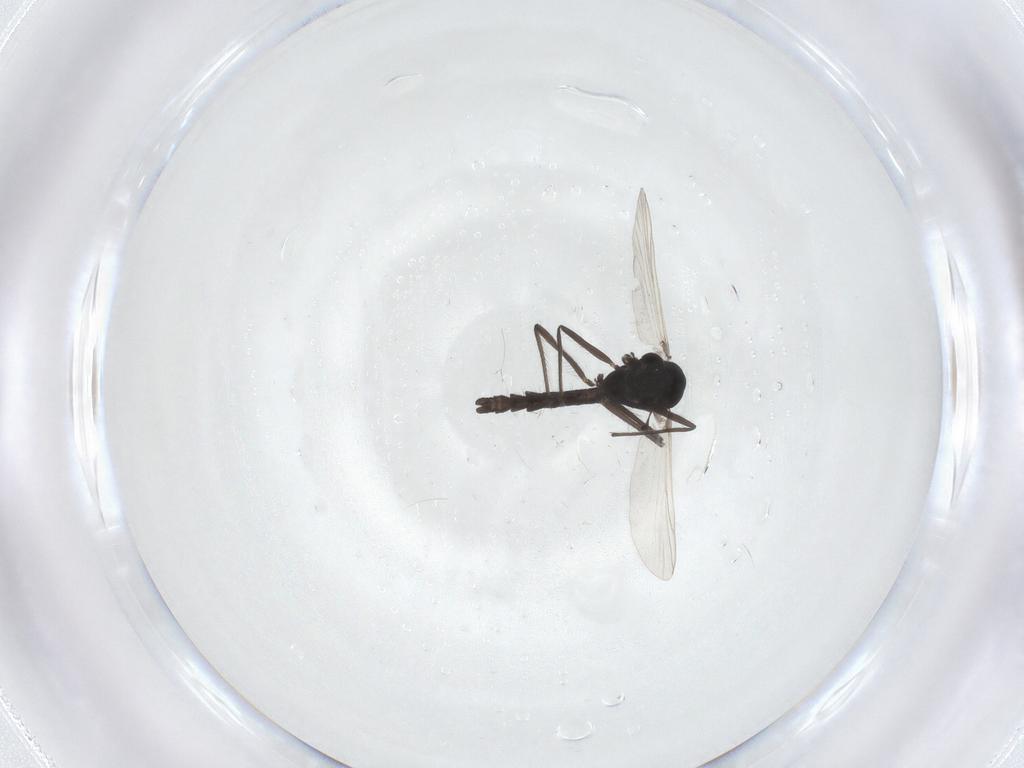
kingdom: Animalia
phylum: Arthropoda
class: Insecta
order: Diptera
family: Chironomidae
